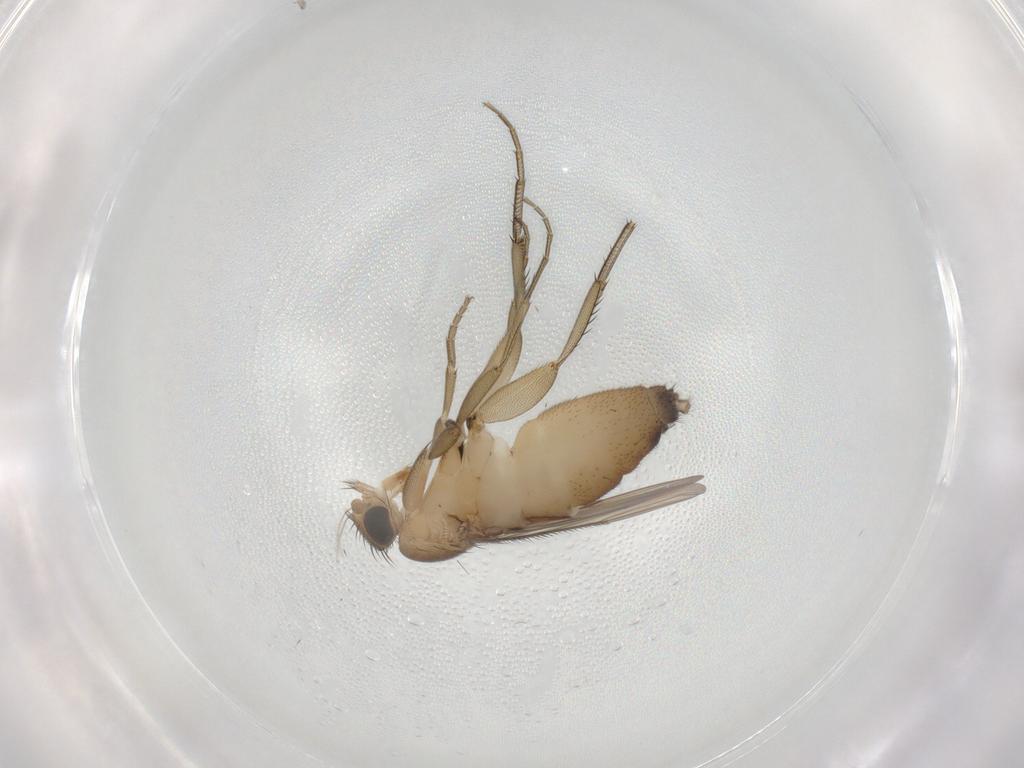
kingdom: Animalia
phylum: Arthropoda
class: Insecta
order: Diptera
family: Phoridae
